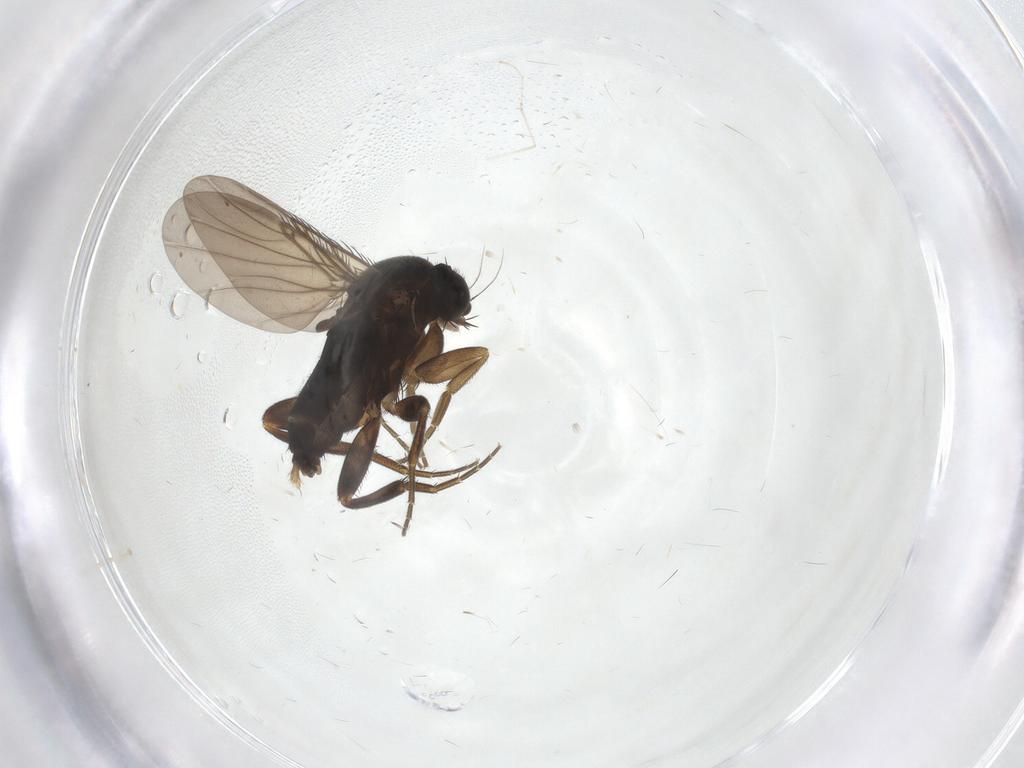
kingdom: Animalia
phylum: Arthropoda
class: Insecta
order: Diptera
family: Phoridae
